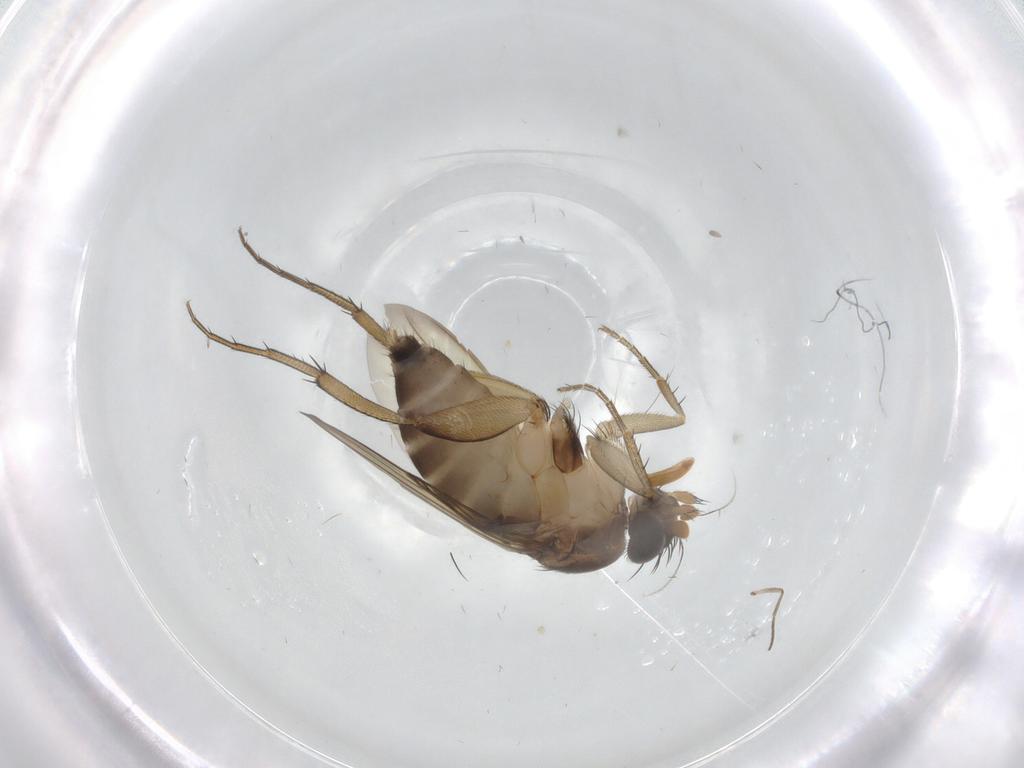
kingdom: Animalia
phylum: Arthropoda
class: Insecta
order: Diptera
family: Phoridae
